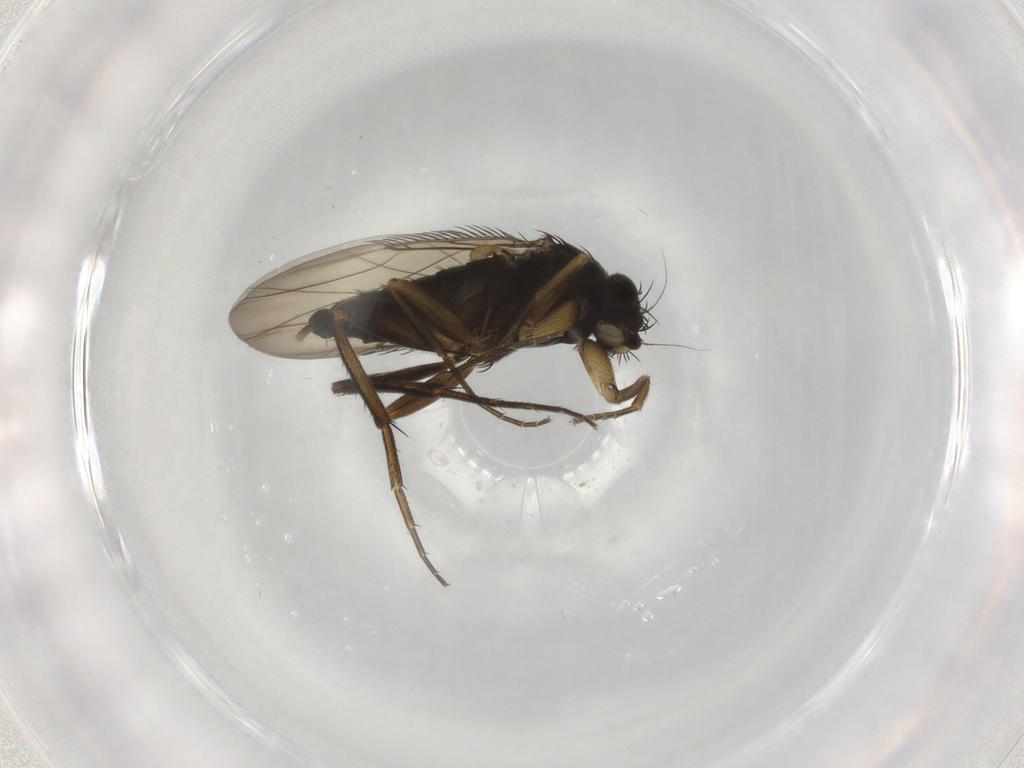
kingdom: Animalia
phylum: Arthropoda
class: Insecta
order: Diptera
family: Phoridae
